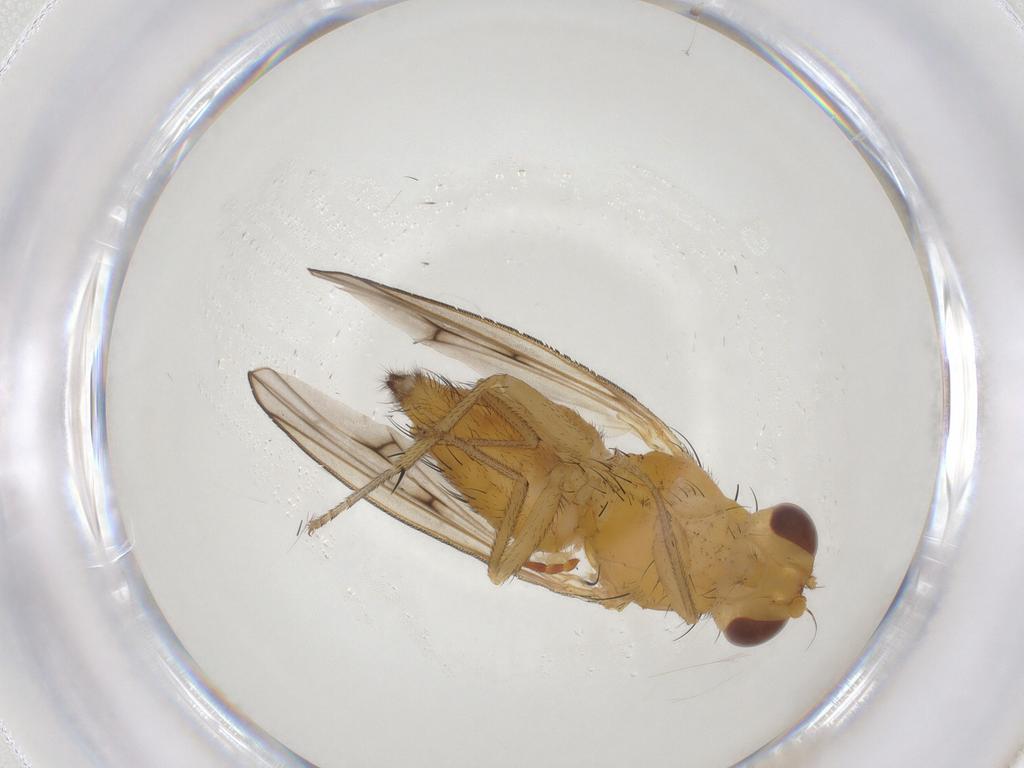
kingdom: Animalia
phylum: Arthropoda
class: Insecta
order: Diptera
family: Lauxaniidae
